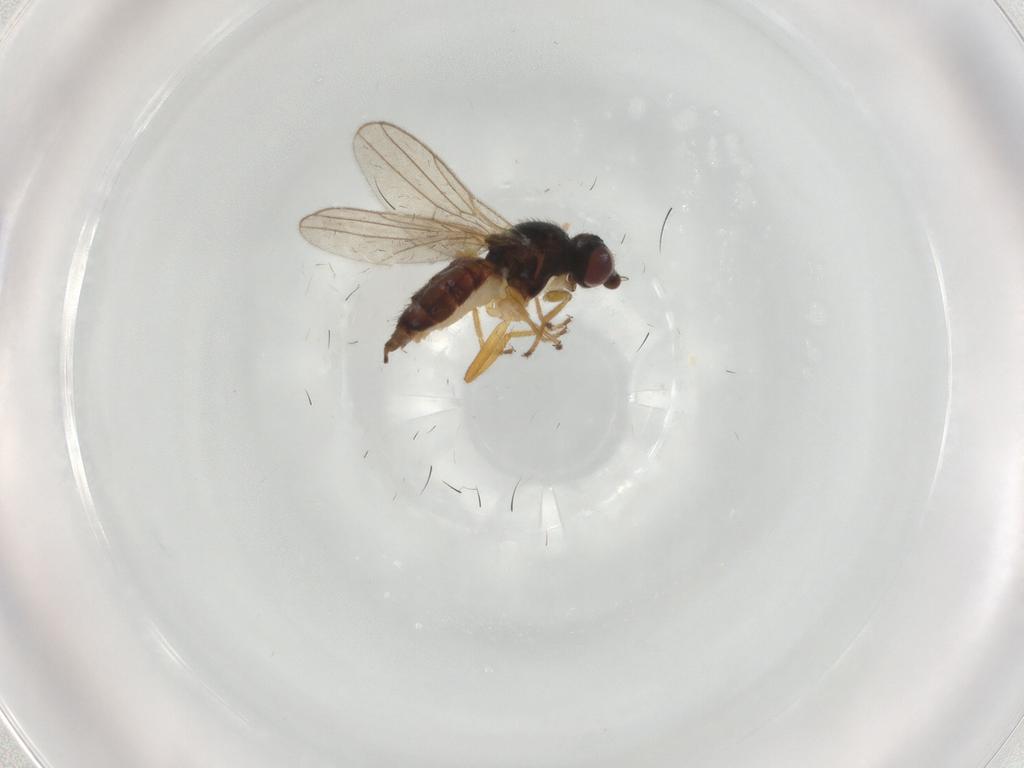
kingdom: Animalia
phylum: Arthropoda
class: Insecta
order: Diptera
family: Chloropidae
